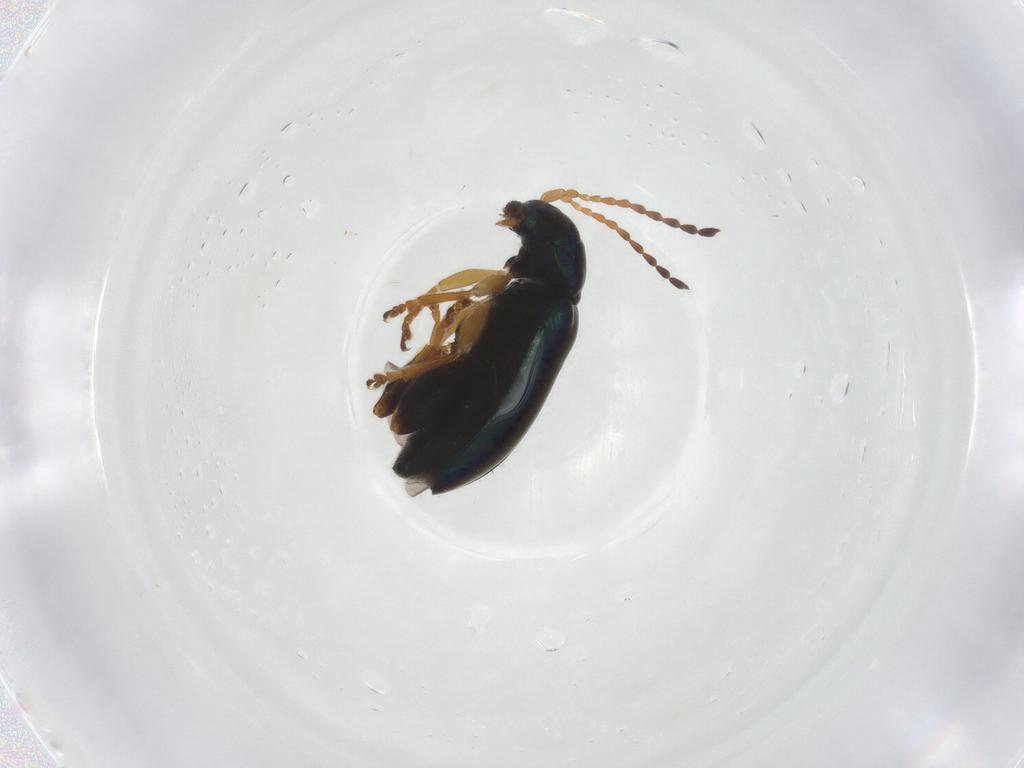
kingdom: Animalia
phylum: Arthropoda
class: Insecta
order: Coleoptera
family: Chrysomelidae
